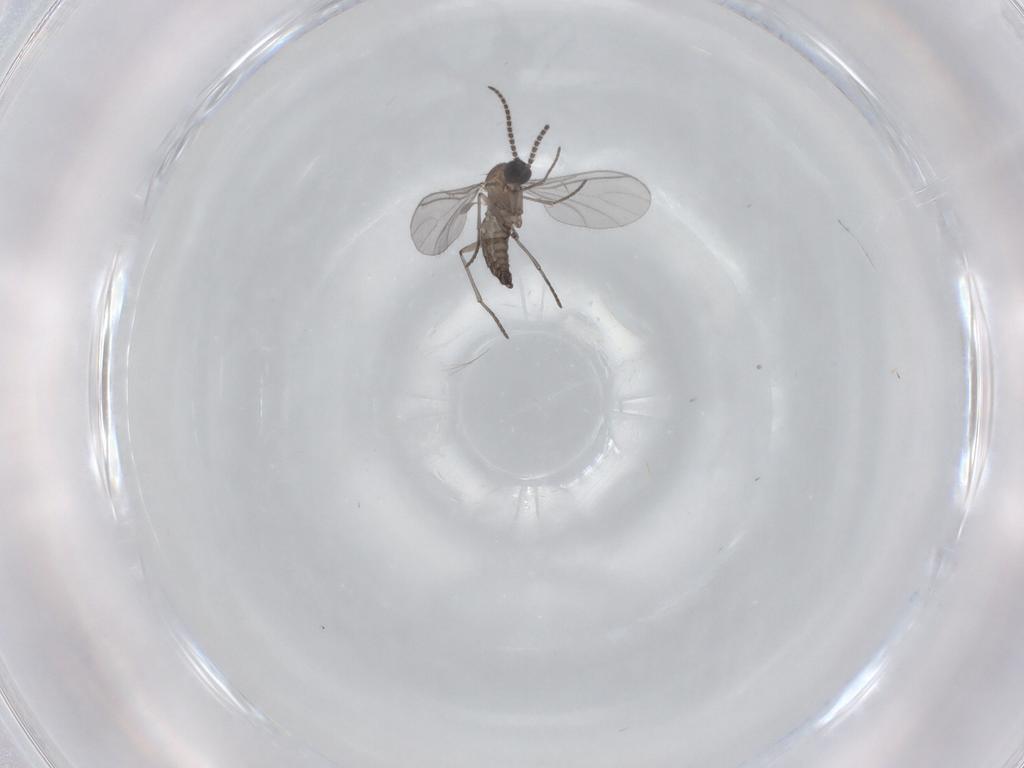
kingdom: Animalia
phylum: Arthropoda
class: Insecta
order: Diptera
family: Sciaridae
